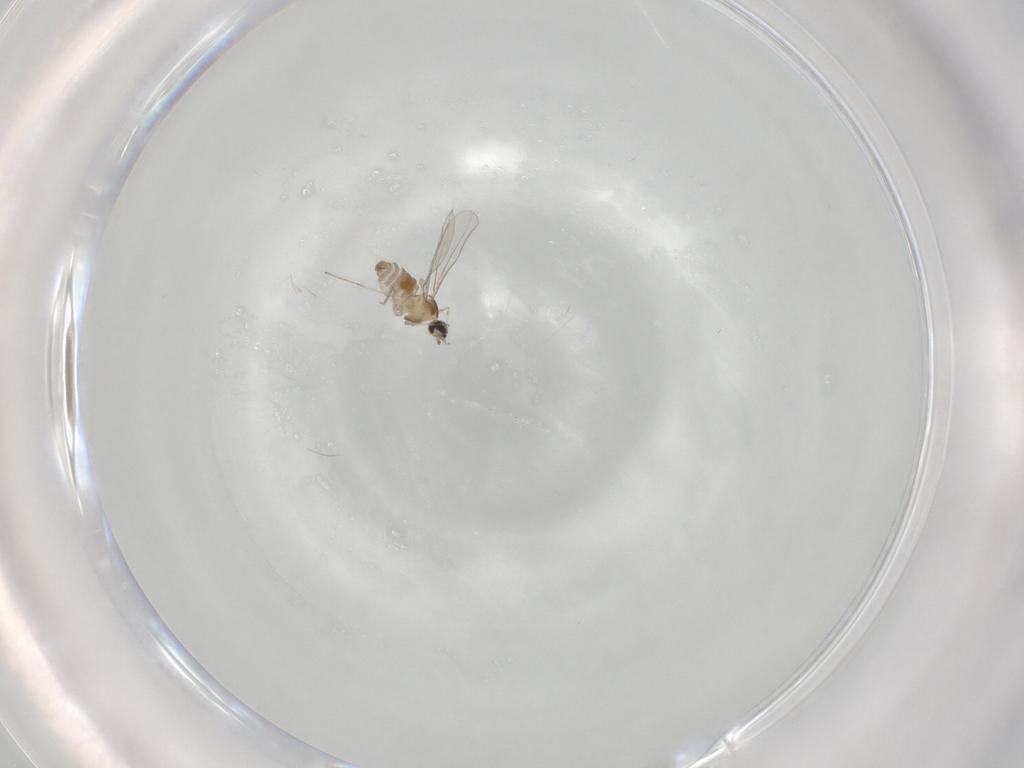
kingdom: Animalia
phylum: Arthropoda
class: Insecta
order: Diptera
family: Cecidomyiidae
